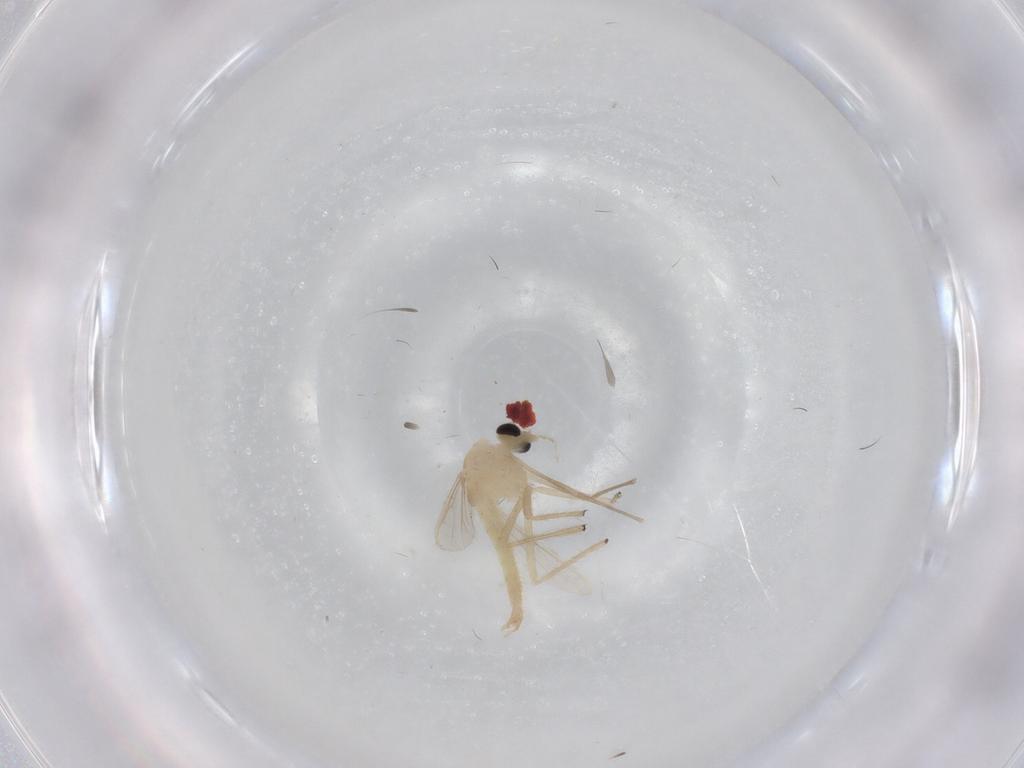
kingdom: Animalia
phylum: Arthropoda
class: Insecta
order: Diptera
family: Chironomidae
